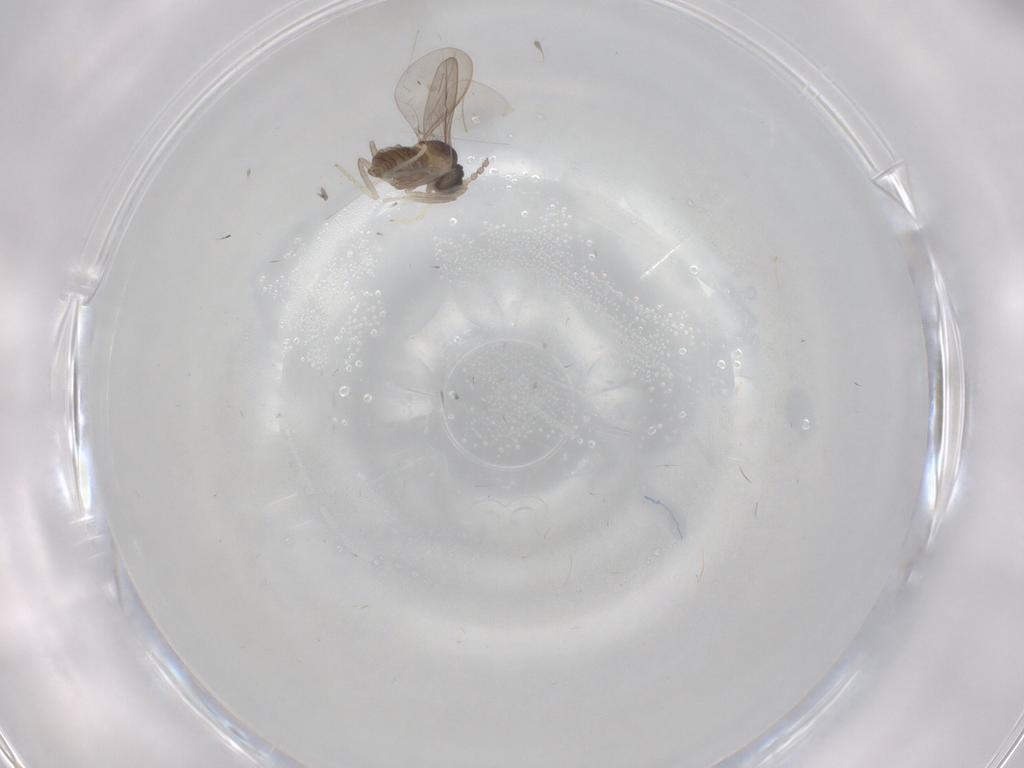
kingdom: Animalia
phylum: Arthropoda
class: Insecta
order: Diptera
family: Cecidomyiidae
